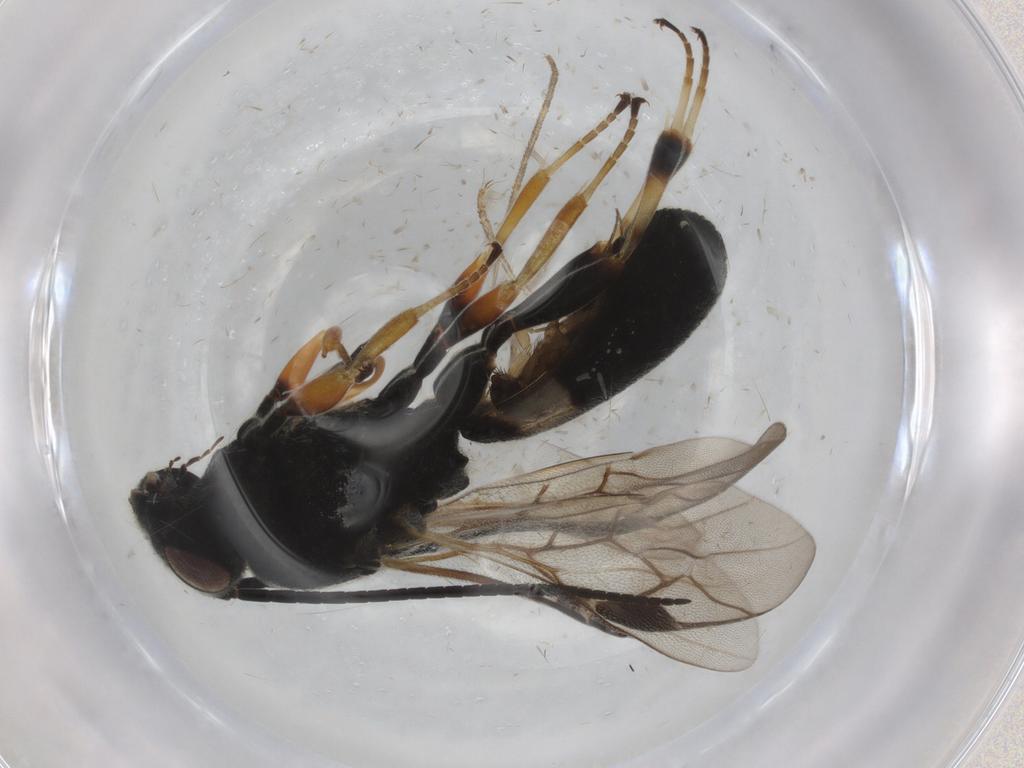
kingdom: Animalia
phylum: Arthropoda
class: Insecta
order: Hymenoptera
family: Braconidae
